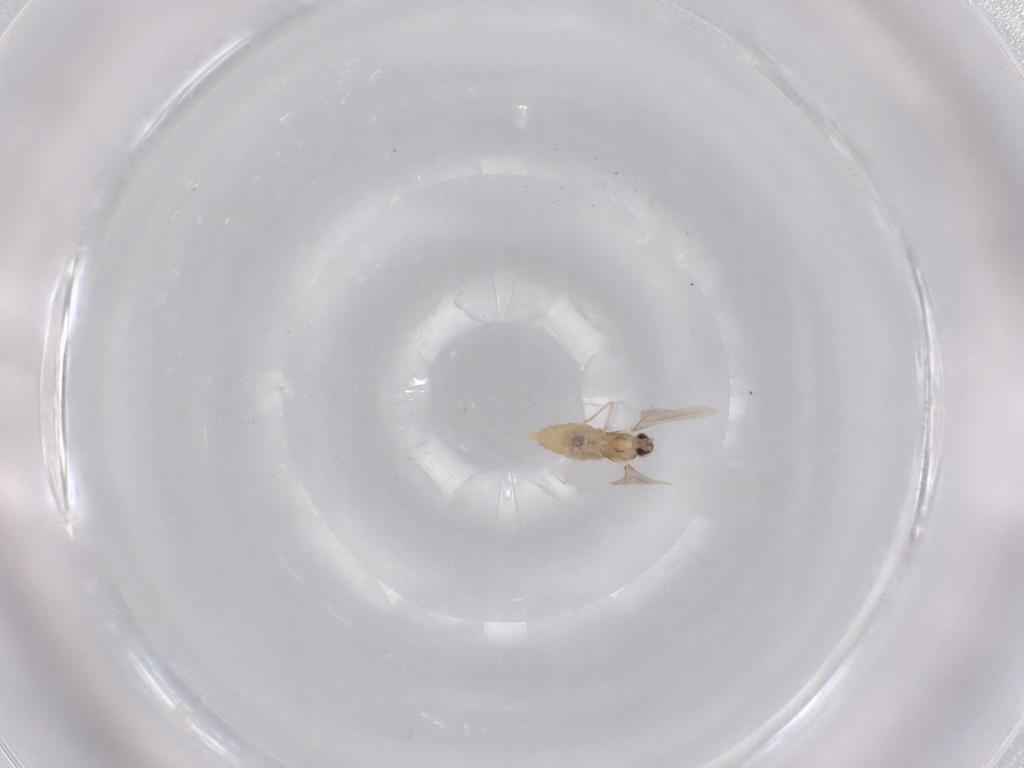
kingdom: Animalia
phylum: Arthropoda
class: Insecta
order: Diptera
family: Cecidomyiidae
